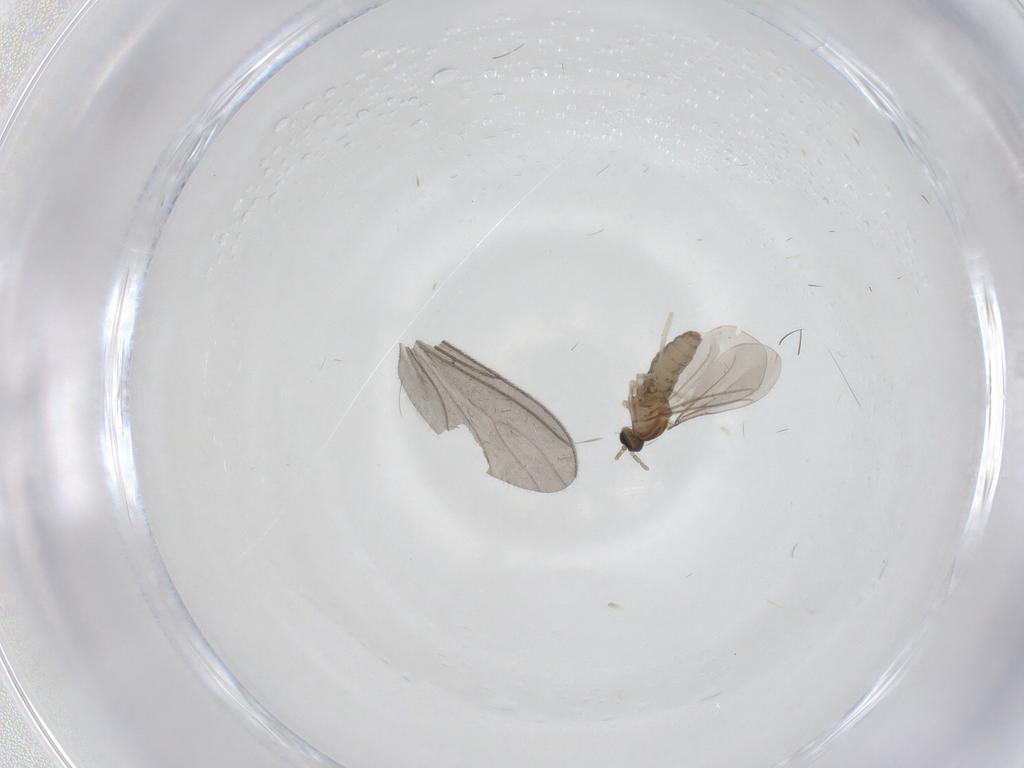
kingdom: Animalia
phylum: Arthropoda
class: Insecta
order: Diptera
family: Cecidomyiidae
